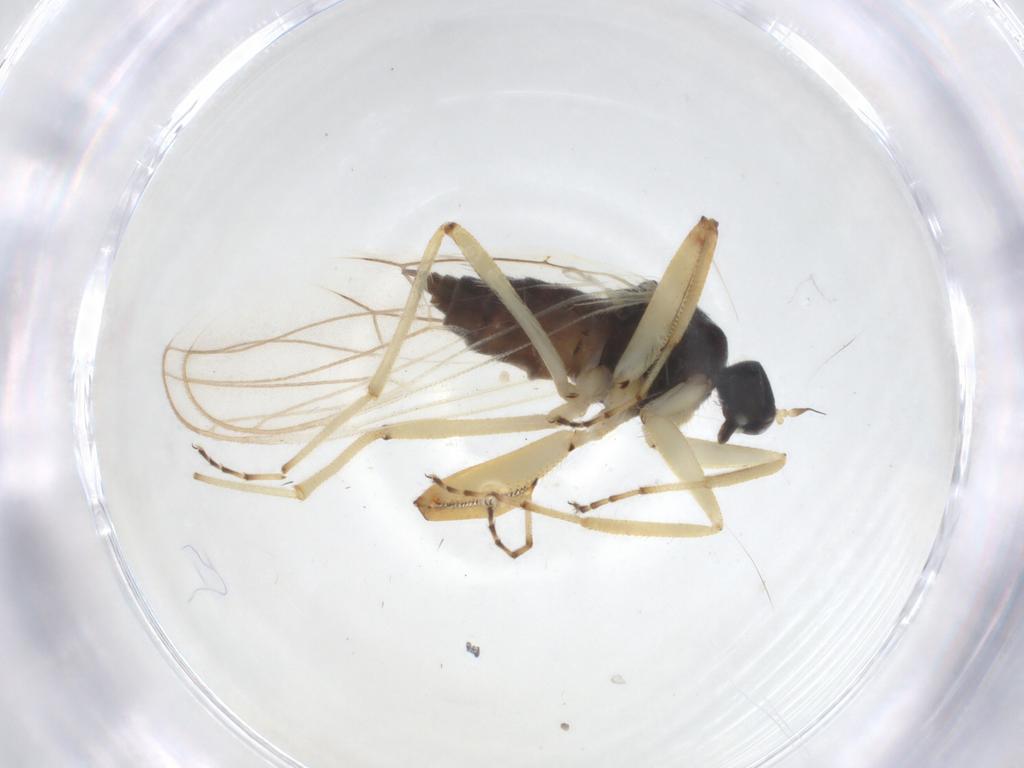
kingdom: Animalia
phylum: Arthropoda
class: Insecta
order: Diptera
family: Hybotidae
